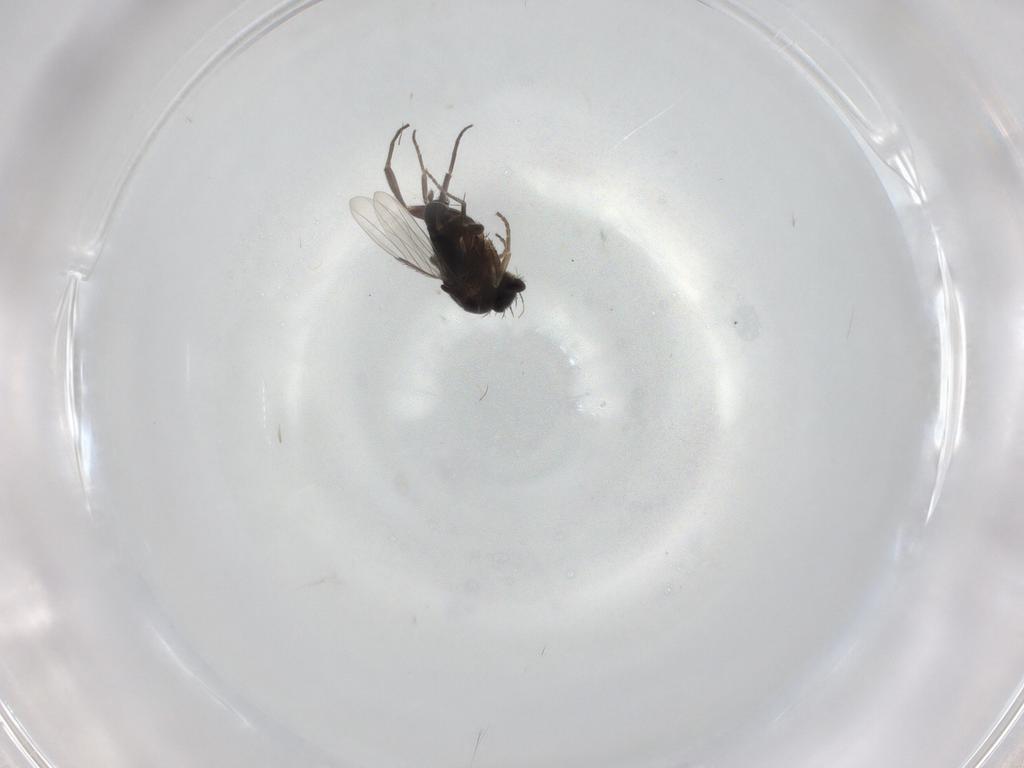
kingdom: Animalia
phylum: Arthropoda
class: Insecta
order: Diptera
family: Phoridae
